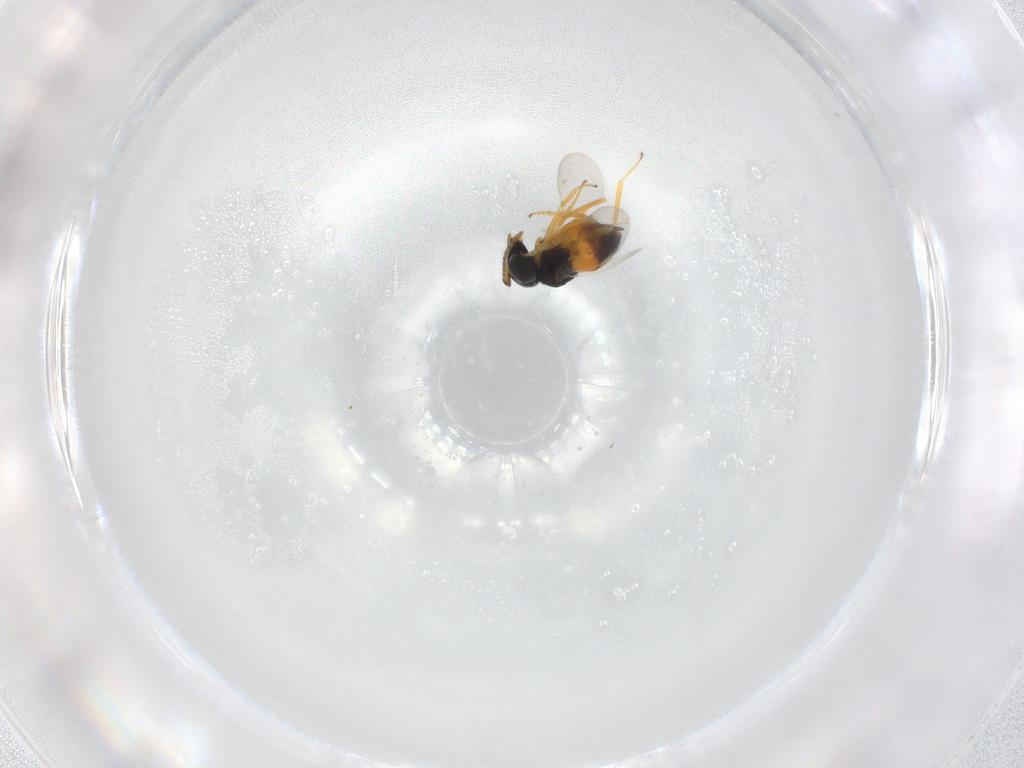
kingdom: Animalia
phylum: Arthropoda
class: Insecta
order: Hymenoptera
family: Encyrtidae
